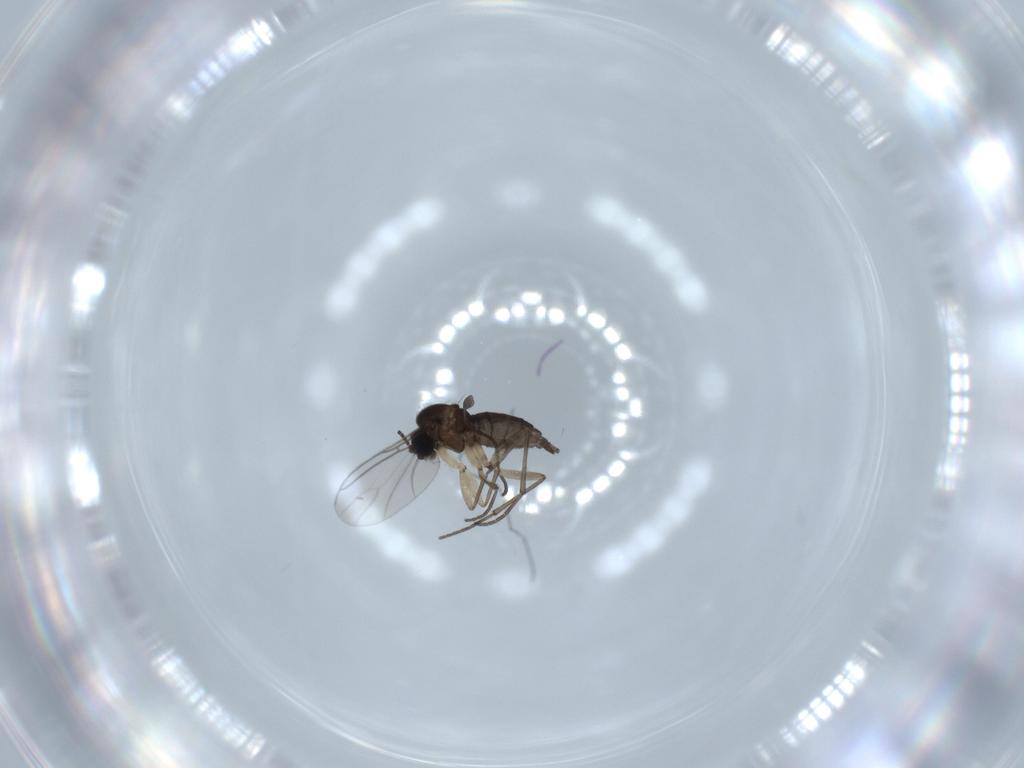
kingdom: Animalia
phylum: Arthropoda
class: Insecta
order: Diptera
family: Sciaridae
